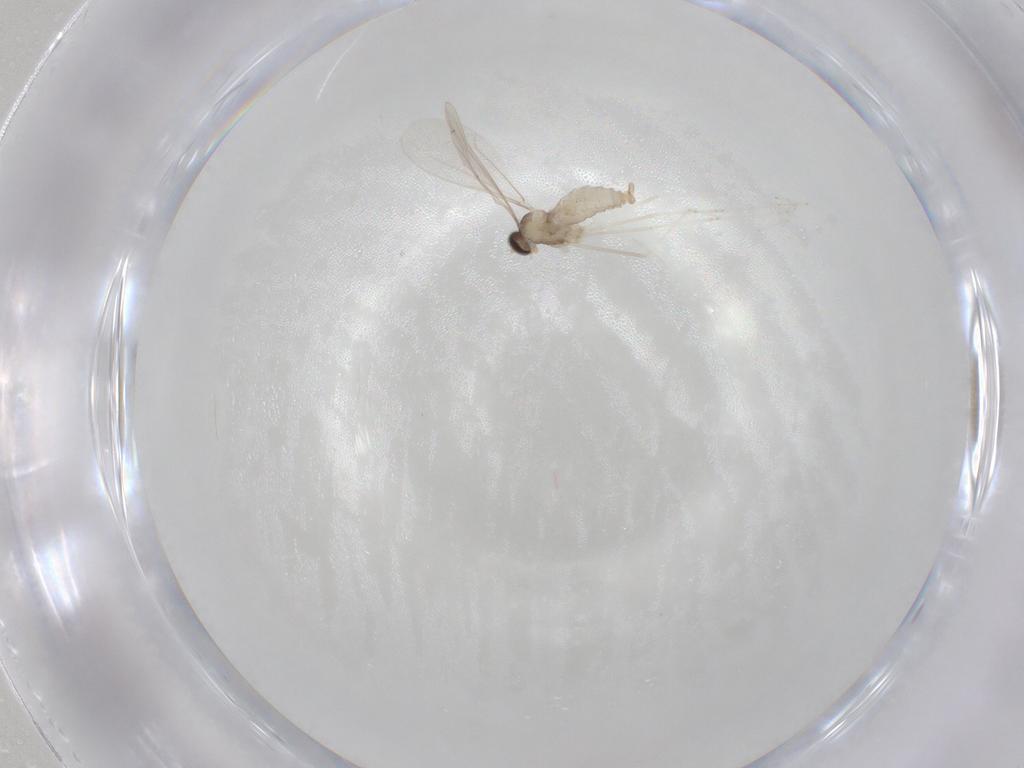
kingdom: Animalia
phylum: Arthropoda
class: Insecta
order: Diptera
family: Cecidomyiidae
